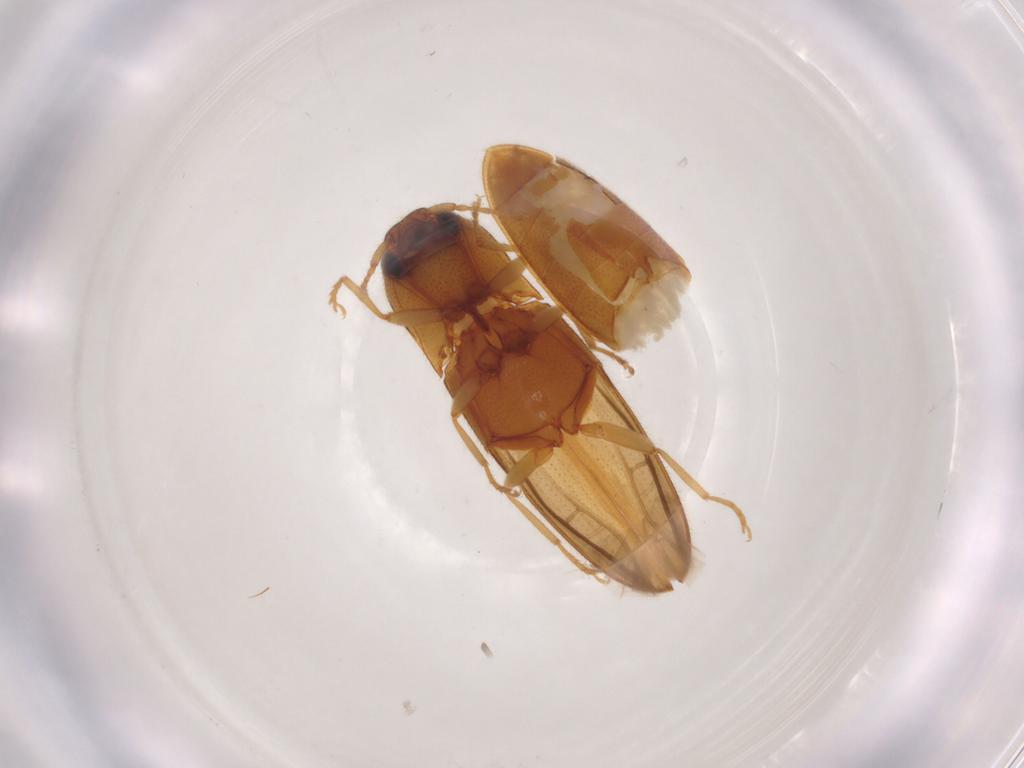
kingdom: Animalia
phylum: Arthropoda
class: Insecta
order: Coleoptera
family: Elateridae
